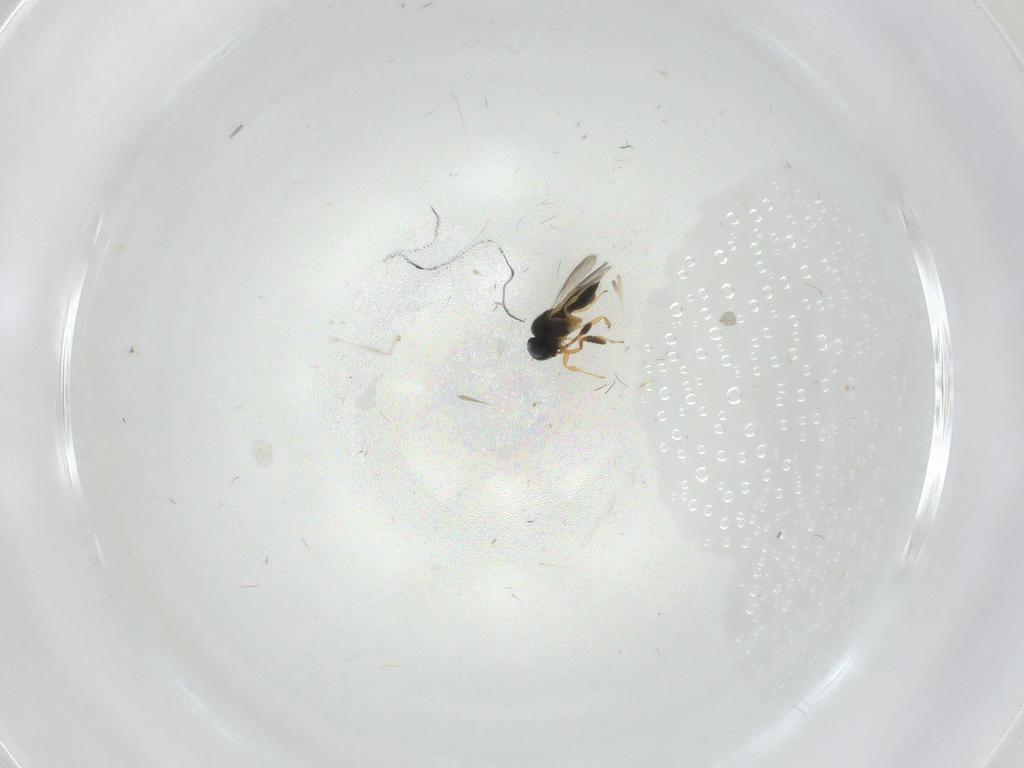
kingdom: Animalia
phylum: Arthropoda
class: Insecta
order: Hymenoptera
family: Scelionidae
